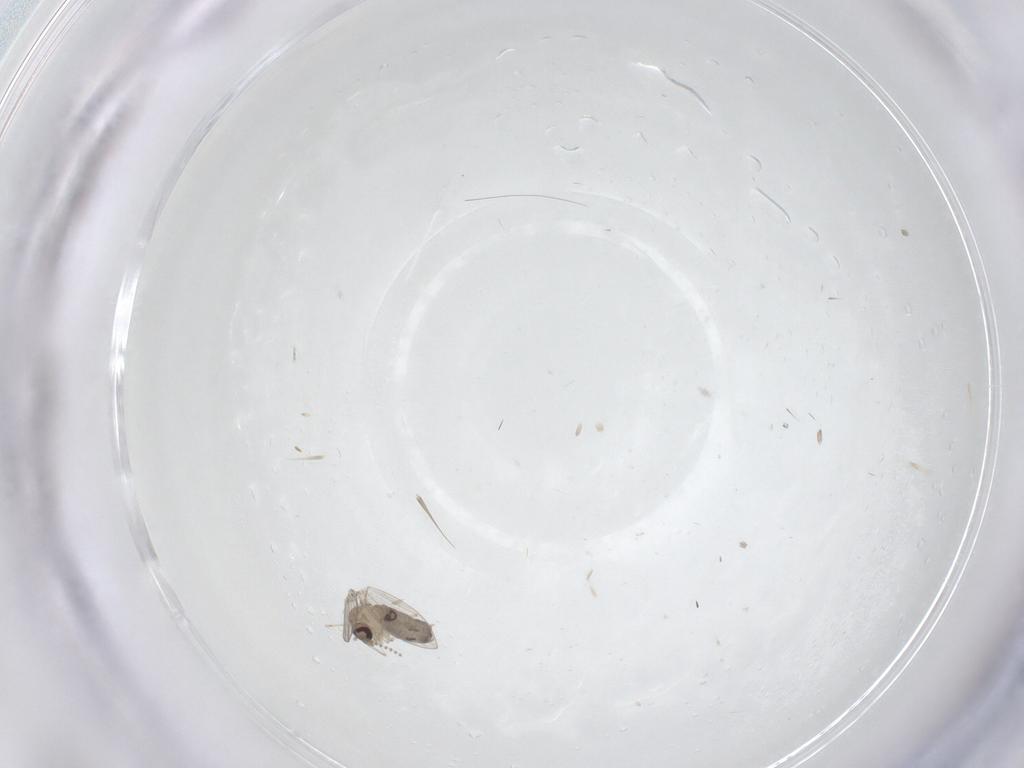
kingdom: Animalia
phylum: Arthropoda
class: Insecta
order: Diptera
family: Psychodidae
